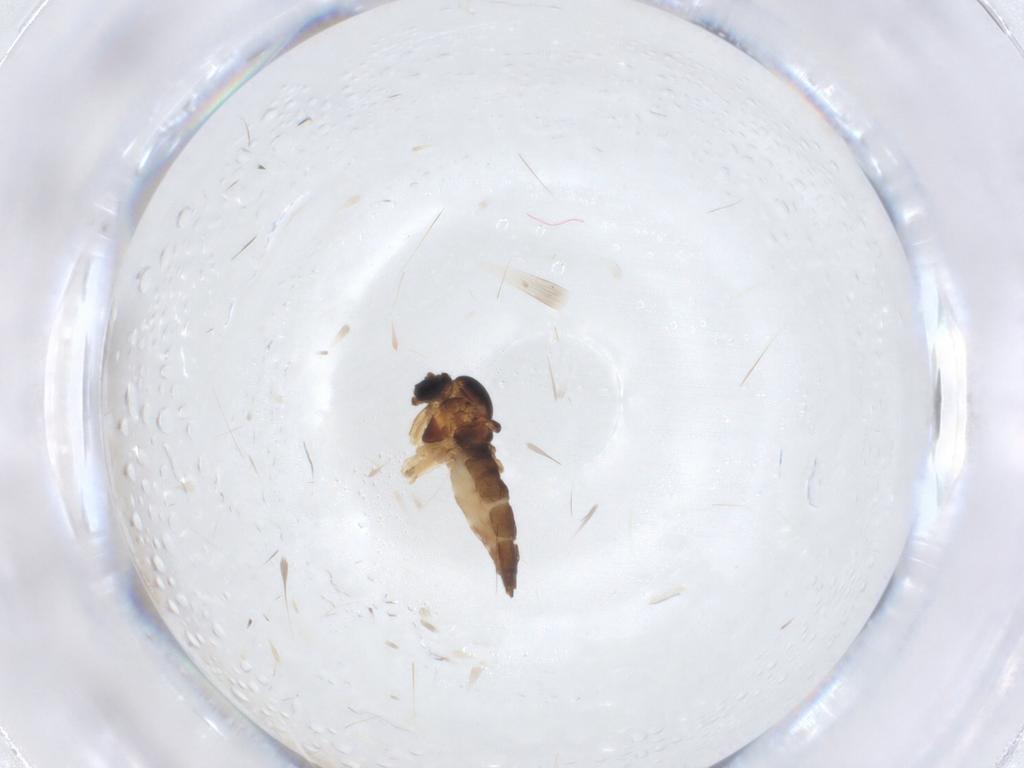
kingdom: Animalia
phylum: Arthropoda
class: Insecta
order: Diptera
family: Sciaridae
